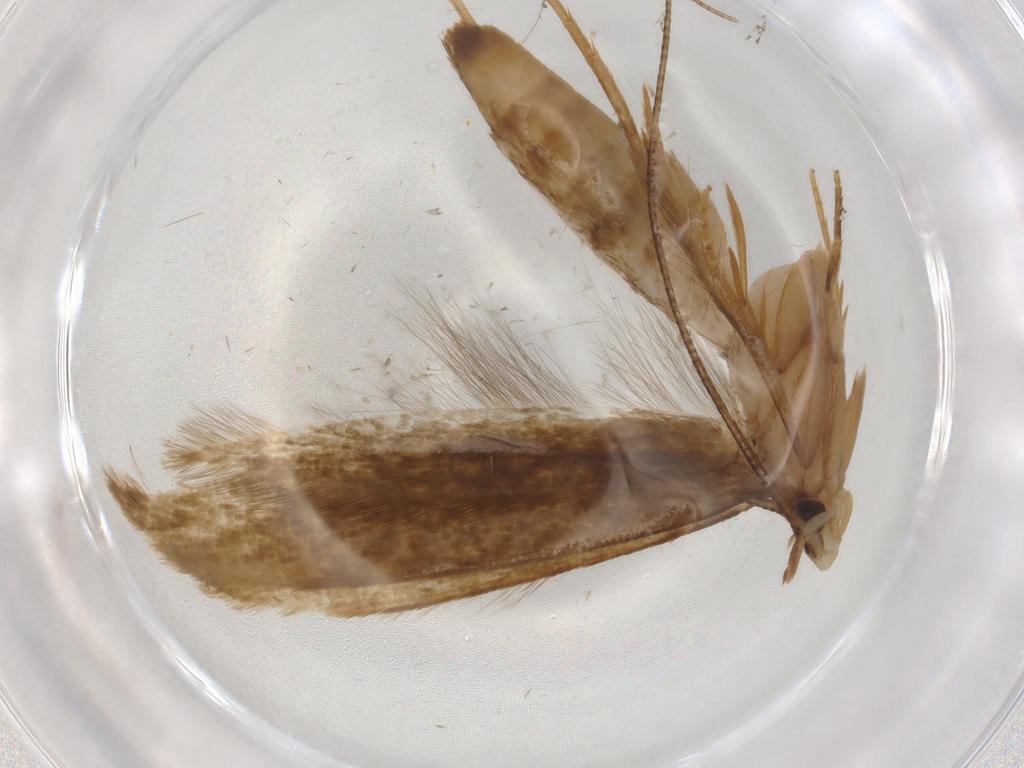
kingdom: Animalia
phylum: Arthropoda
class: Insecta
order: Lepidoptera
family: Tineidae
